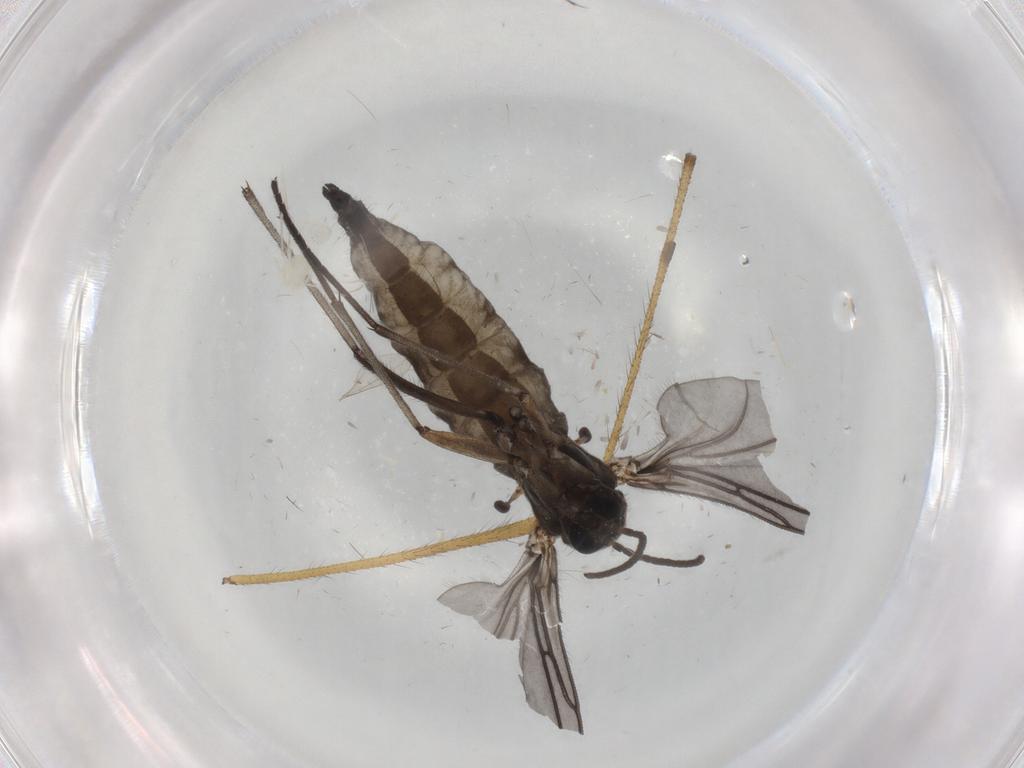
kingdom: Animalia
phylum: Arthropoda
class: Insecta
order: Diptera
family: Sciaridae
